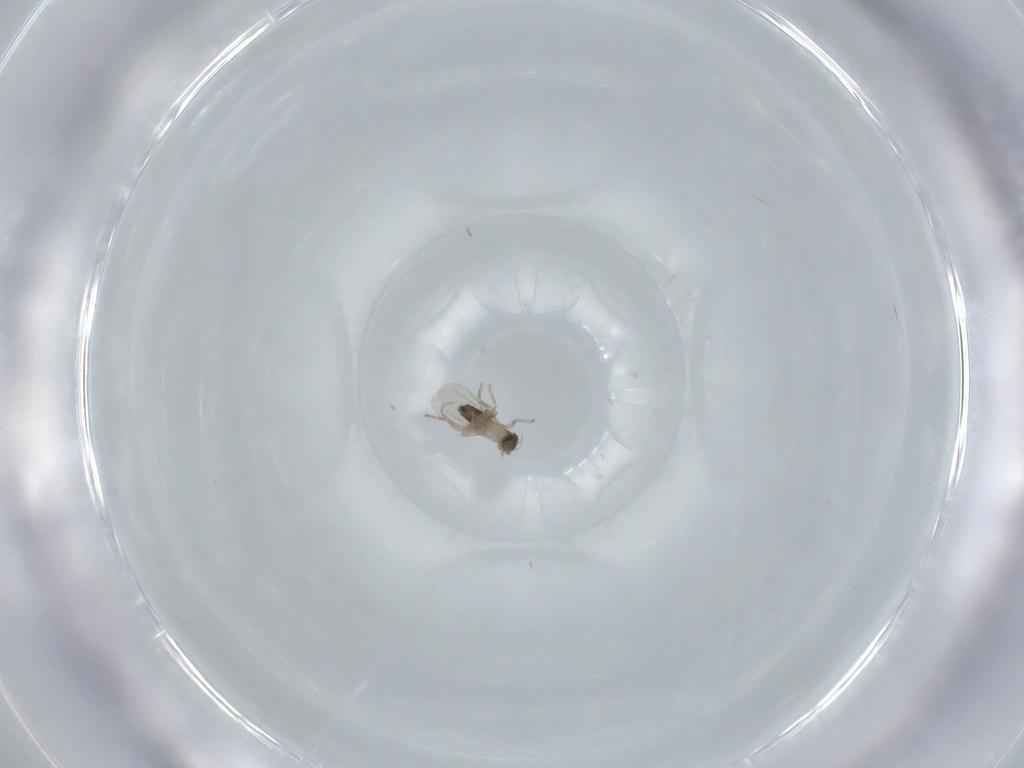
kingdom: Animalia
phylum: Arthropoda
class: Insecta
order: Diptera
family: Phoridae
